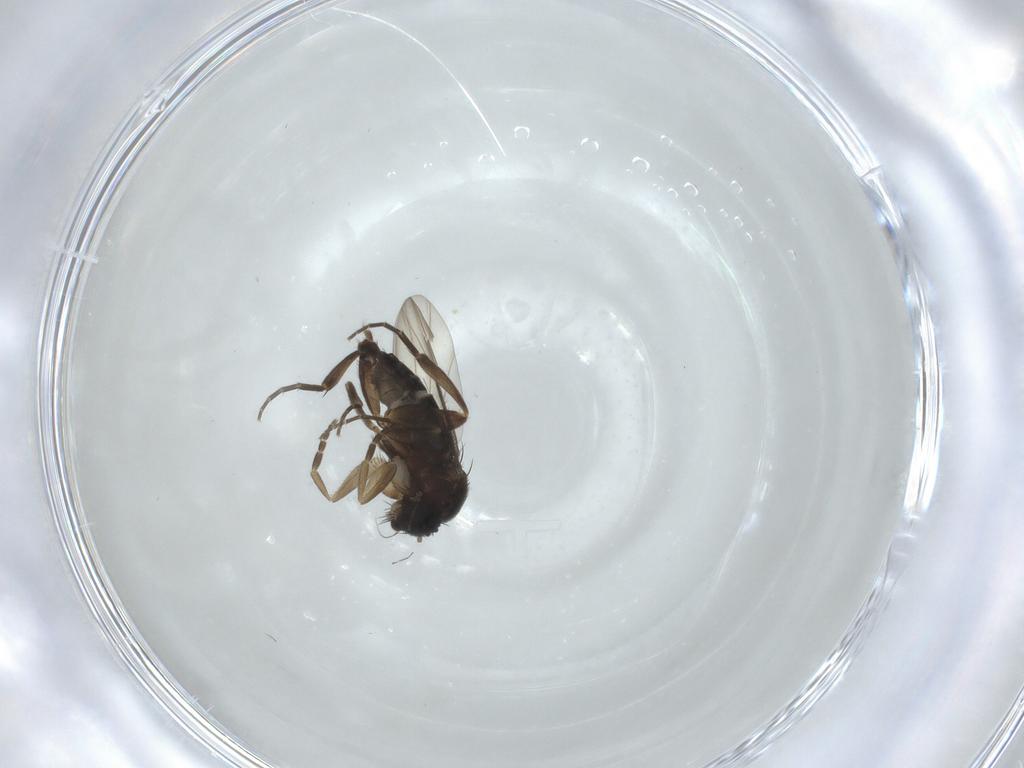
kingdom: Animalia
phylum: Arthropoda
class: Insecta
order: Diptera
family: Phoridae
